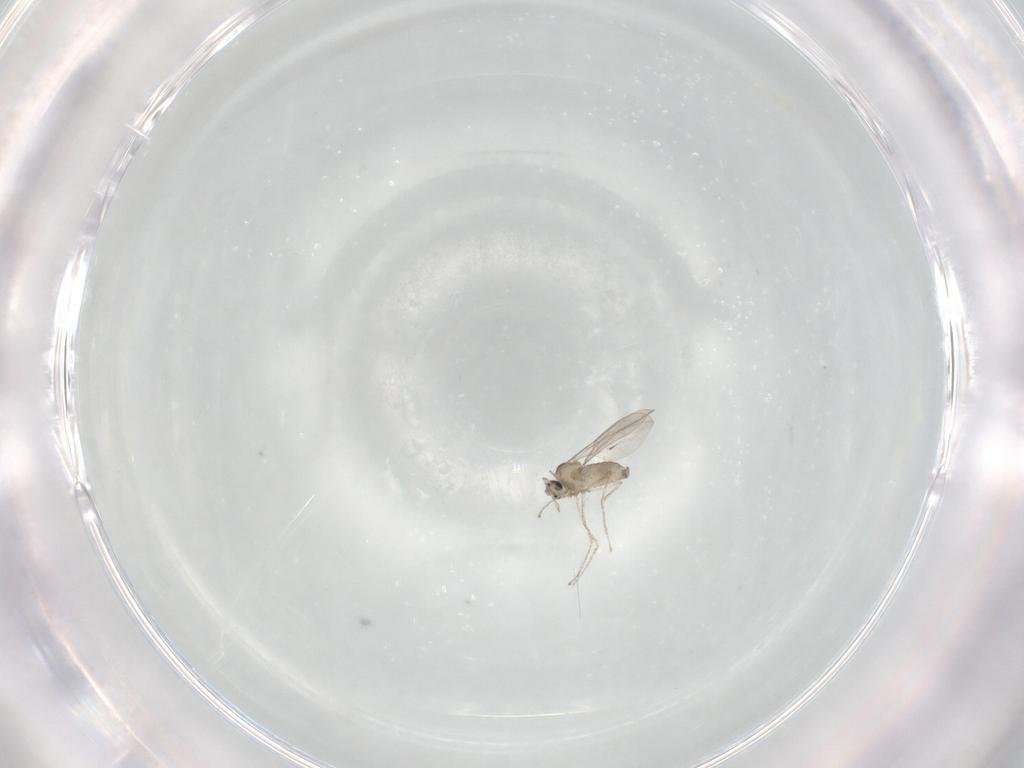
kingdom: Animalia
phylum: Arthropoda
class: Insecta
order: Diptera
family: Cecidomyiidae
